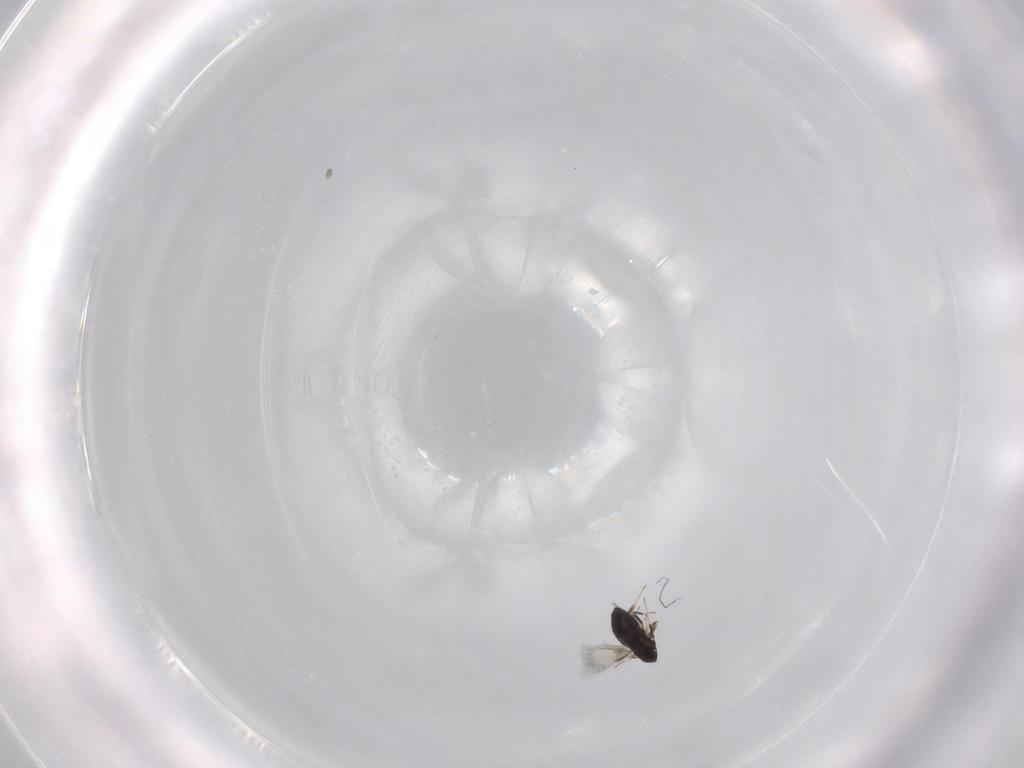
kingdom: Animalia
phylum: Arthropoda
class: Insecta
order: Hymenoptera
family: Signiphoridae
